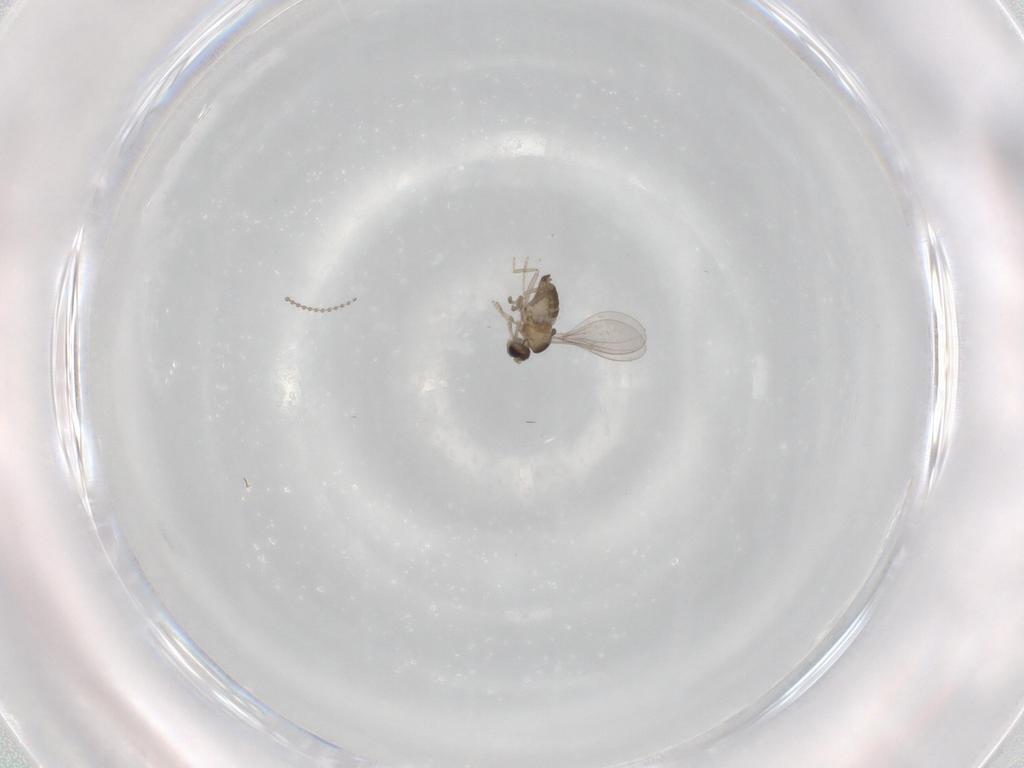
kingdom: Animalia
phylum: Arthropoda
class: Insecta
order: Diptera
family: Cecidomyiidae
